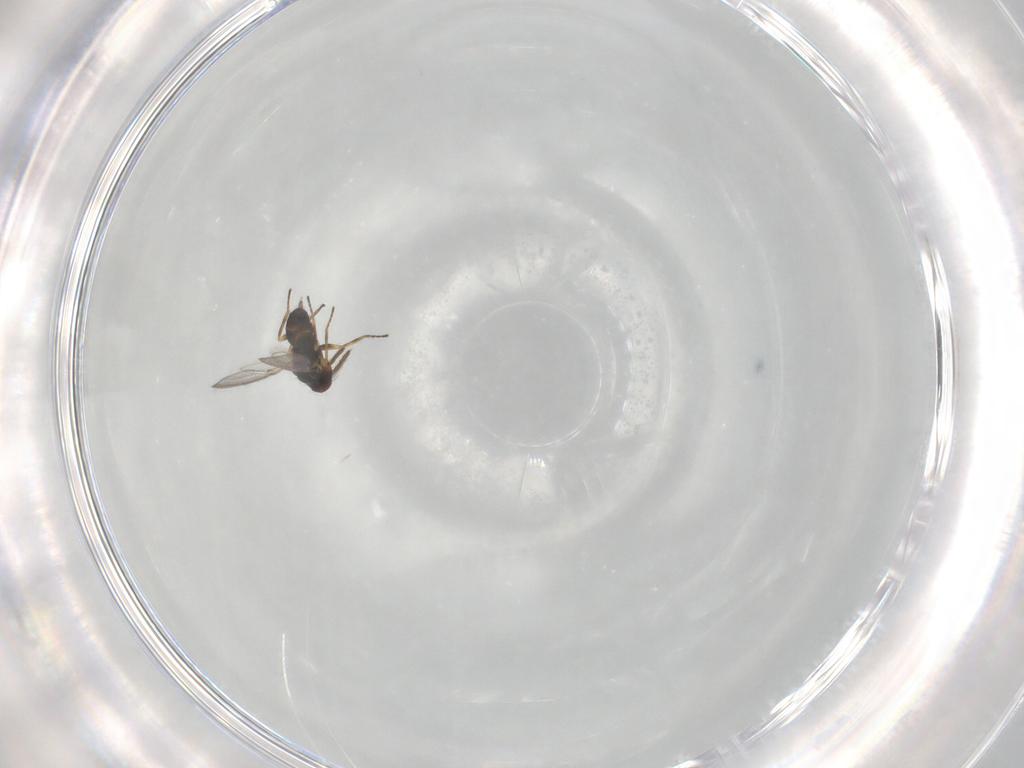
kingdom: Animalia
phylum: Arthropoda
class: Insecta
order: Hymenoptera
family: Eulophidae
